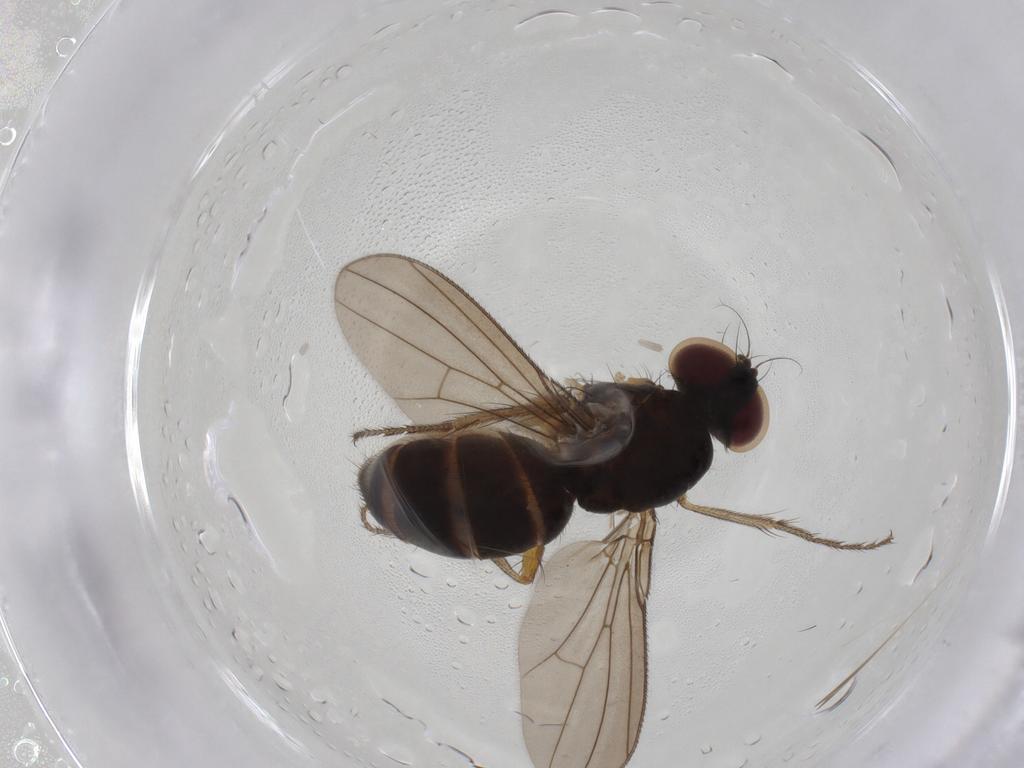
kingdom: Animalia
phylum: Arthropoda
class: Insecta
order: Diptera
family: Anthomyiidae
